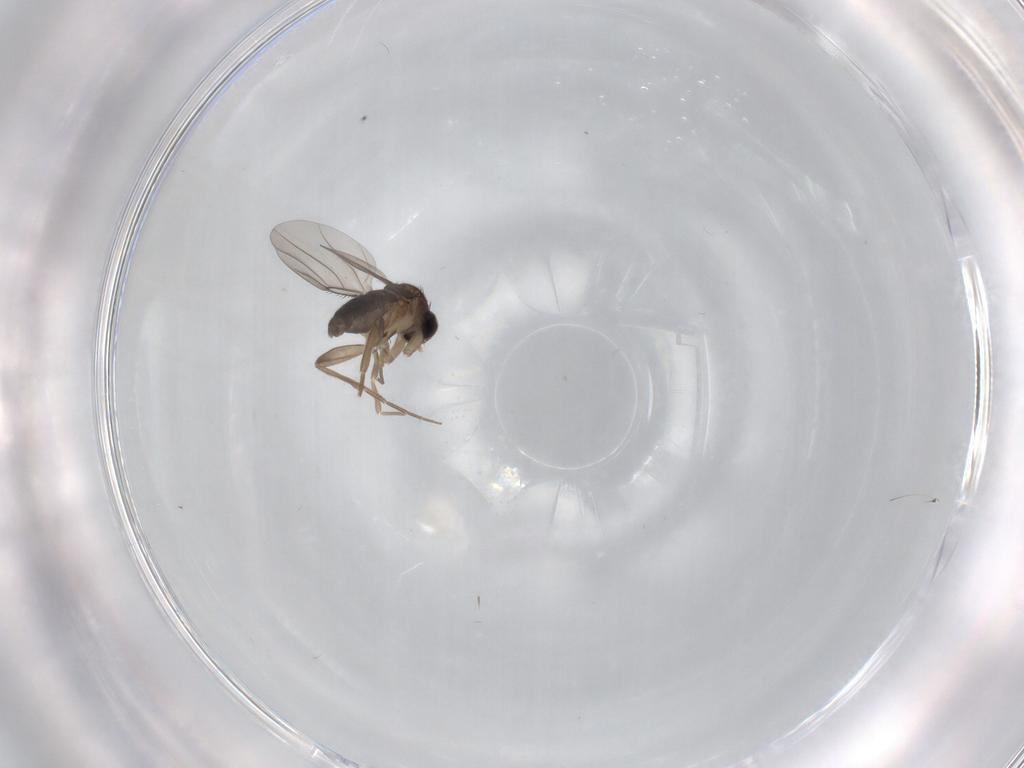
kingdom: Animalia
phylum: Arthropoda
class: Insecta
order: Diptera
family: Phoridae
